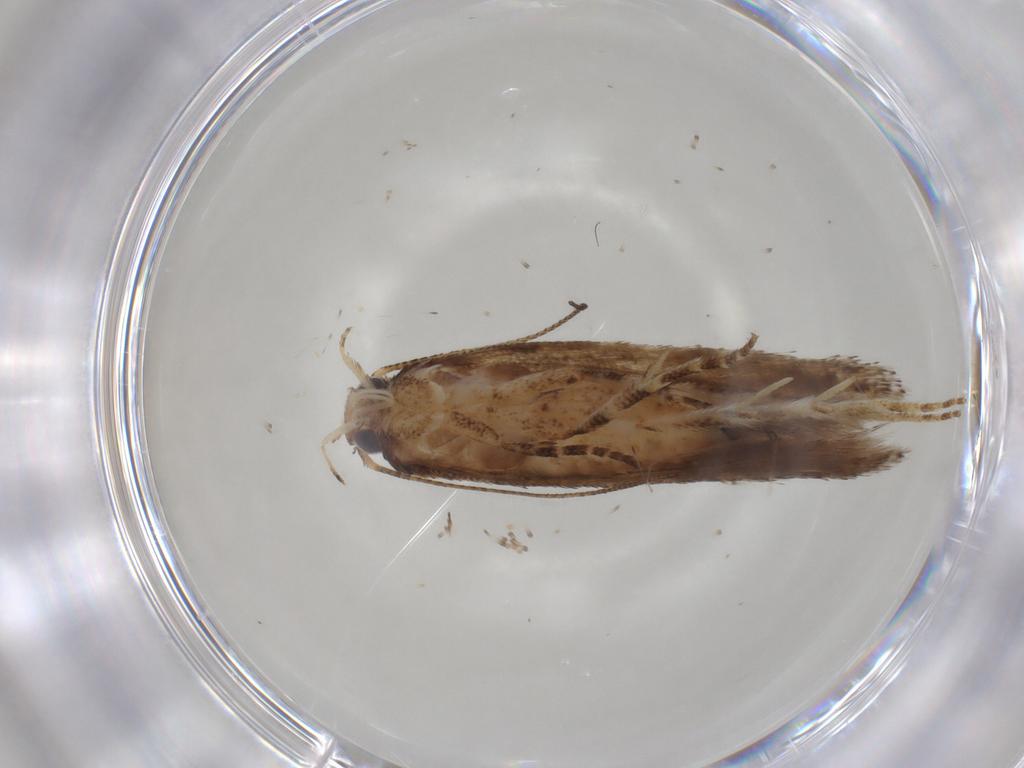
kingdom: Animalia
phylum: Arthropoda
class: Insecta
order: Lepidoptera
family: Gelechiidae
